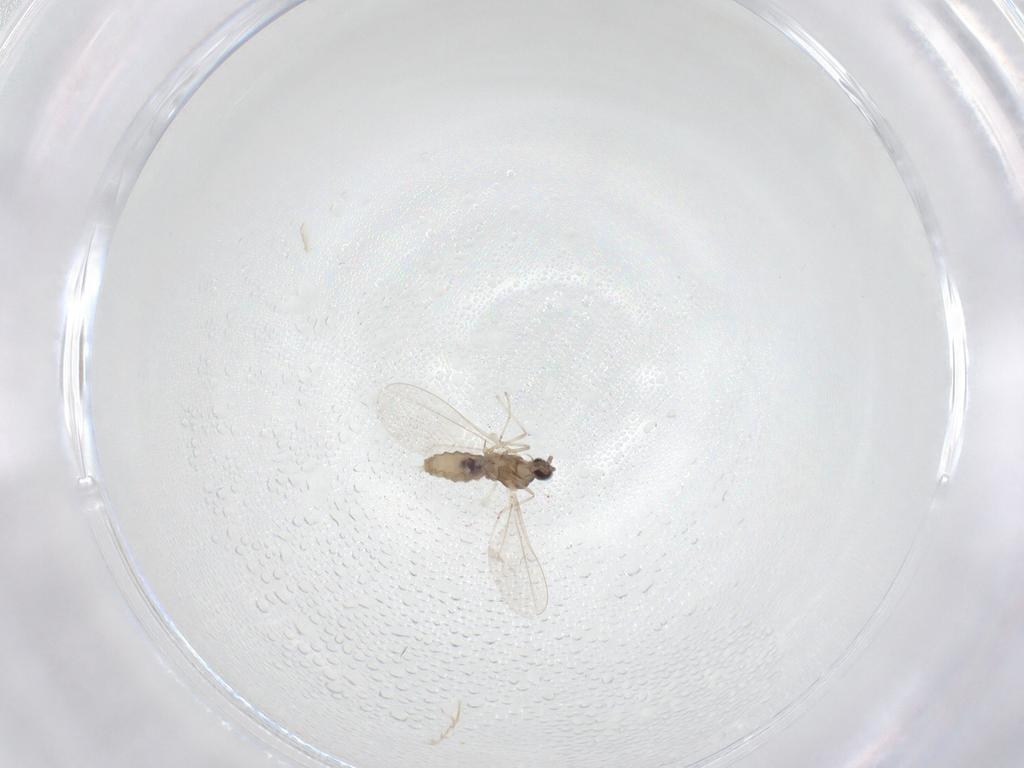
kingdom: Animalia
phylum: Arthropoda
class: Insecta
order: Diptera
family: Cecidomyiidae
